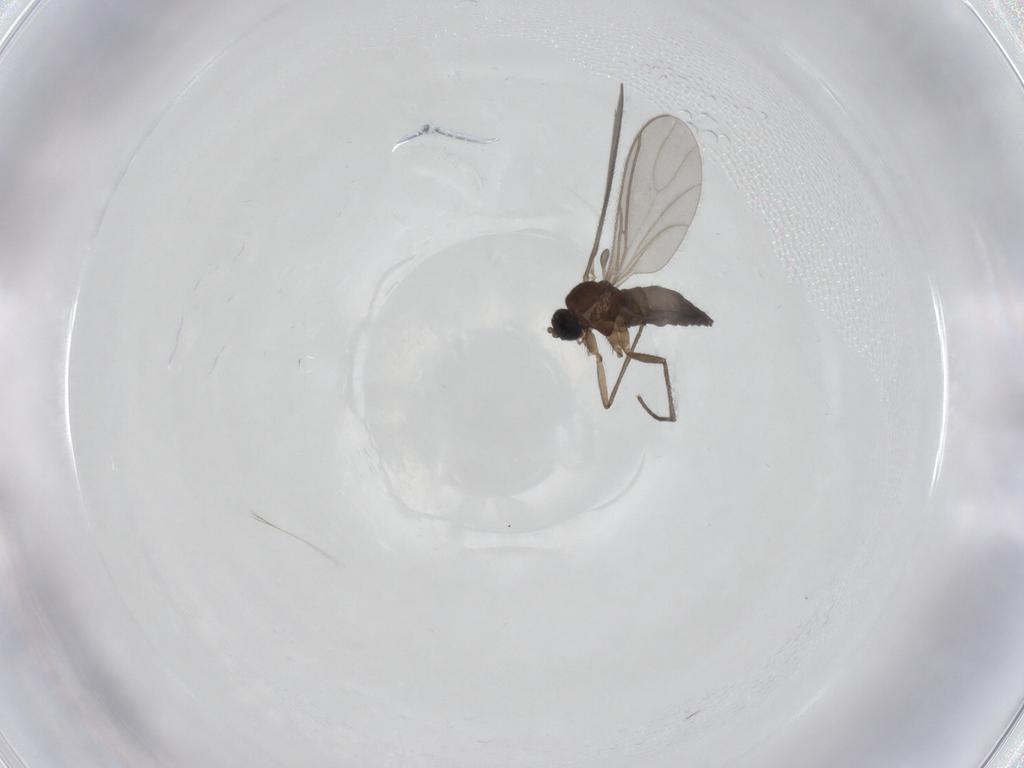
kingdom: Animalia
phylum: Arthropoda
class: Insecta
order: Diptera
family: Sciaridae
